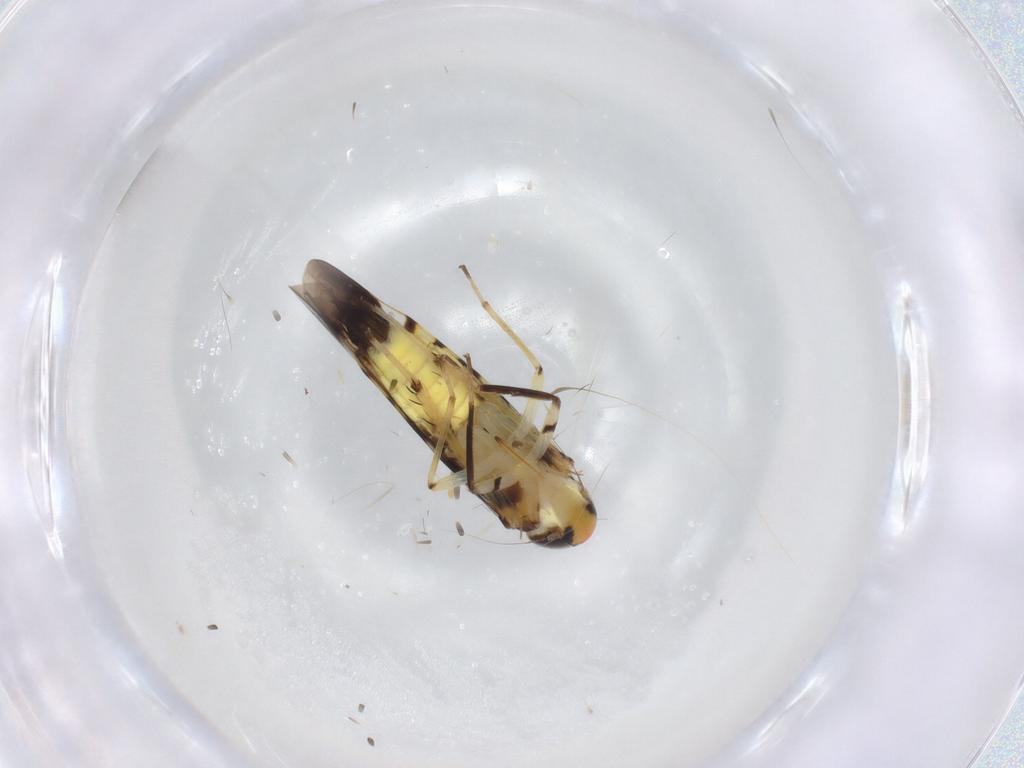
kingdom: Animalia
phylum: Arthropoda
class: Insecta
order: Hemiptera
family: Cicadellidae
